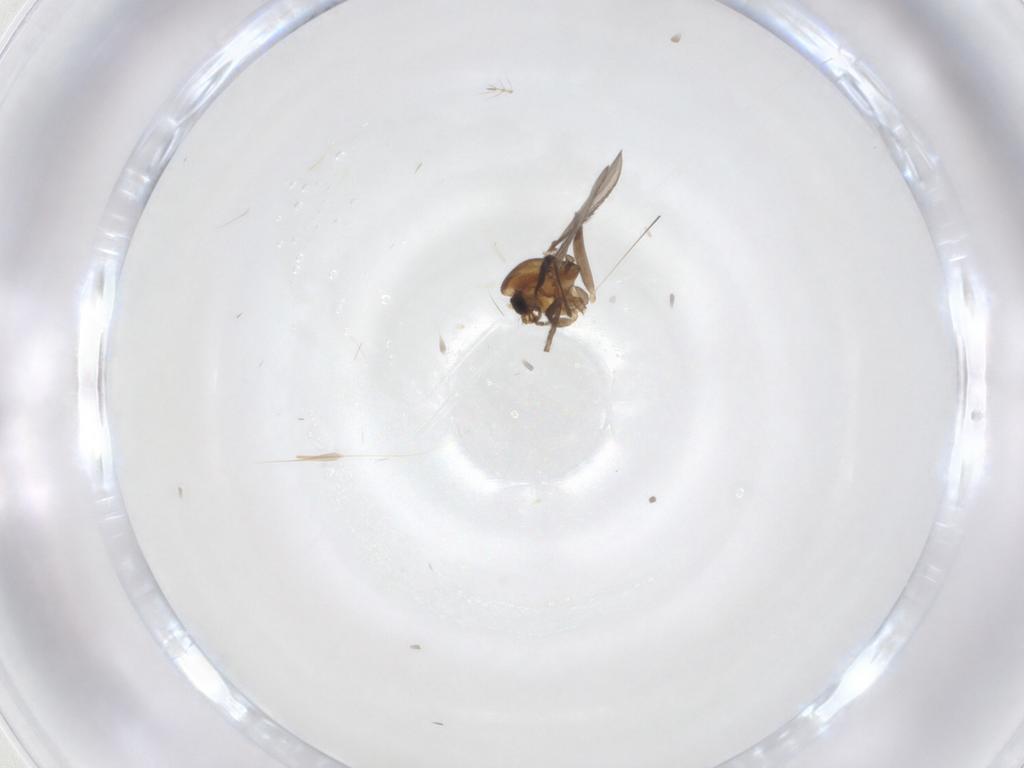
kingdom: Animalia
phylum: Arthropoda
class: Insecta
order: Diptera
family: Chironomidae
